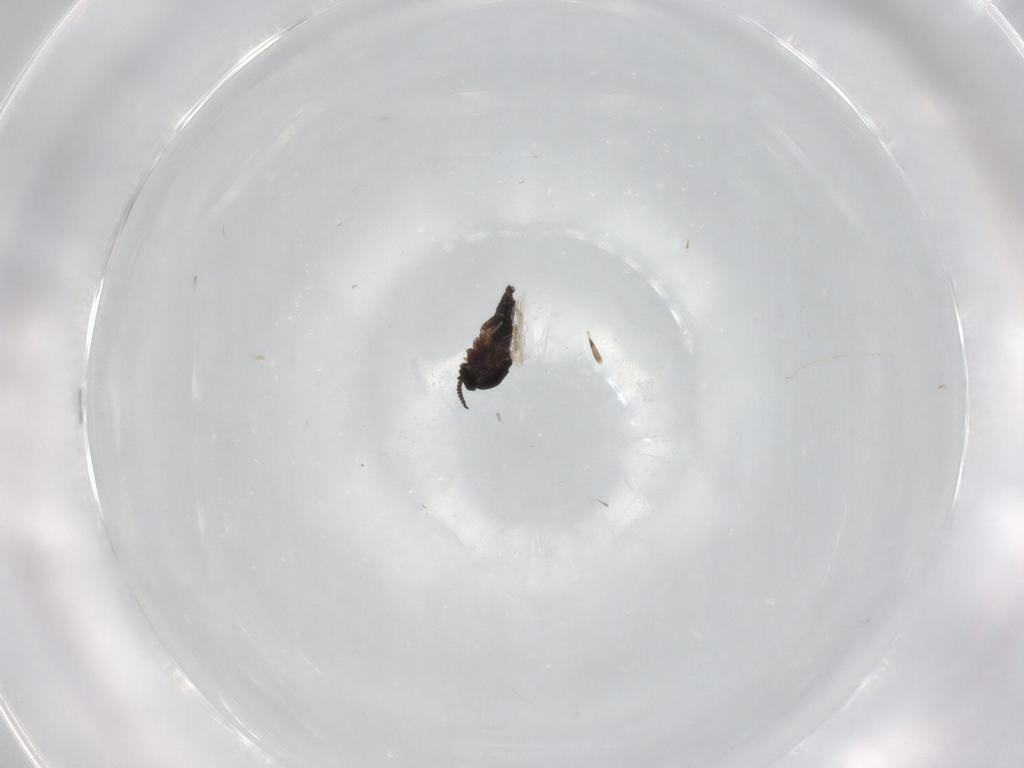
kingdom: Animalia
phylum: Arthropoda
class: Insecta
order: Diptera
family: Scatopsidae
